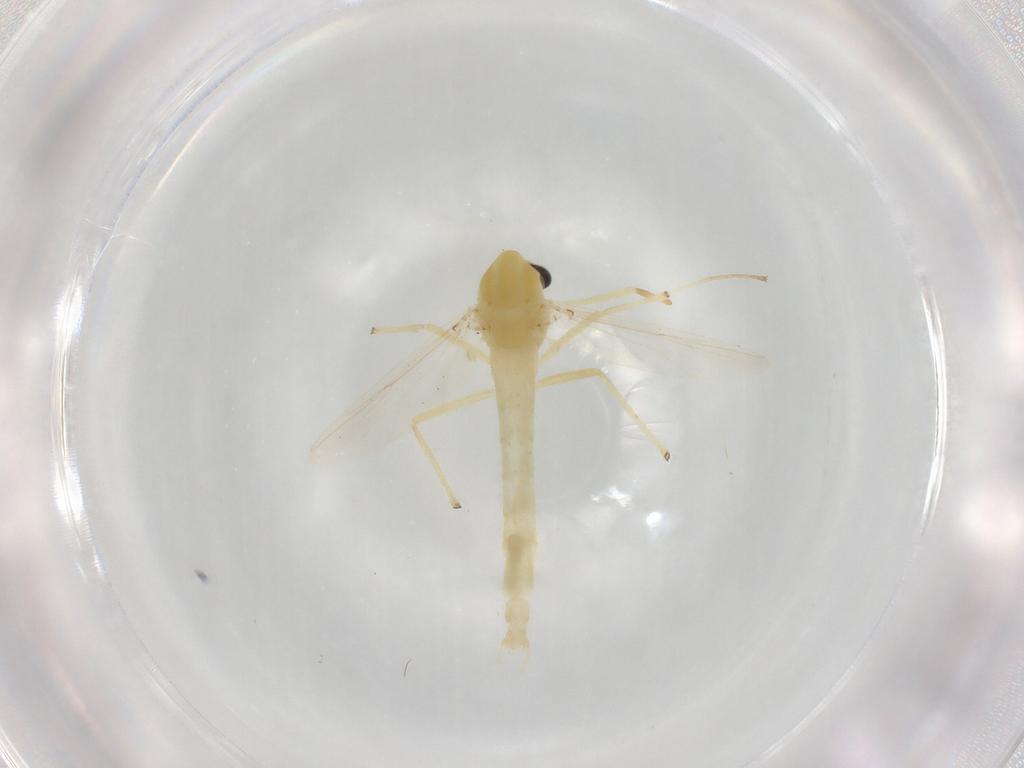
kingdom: Animalia
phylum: Arthropoda
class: Insecta
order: Diptera
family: Chironomidae
